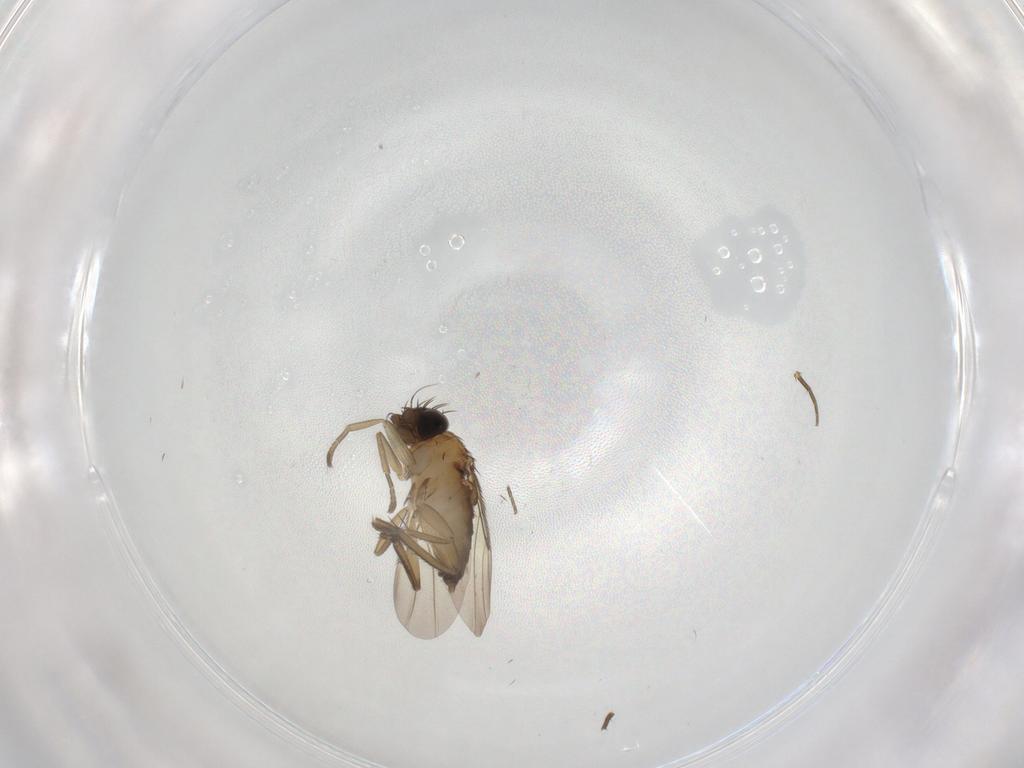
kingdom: Animalia
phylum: Arthropoda
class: Insecta
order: Diptera
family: Phoridae
